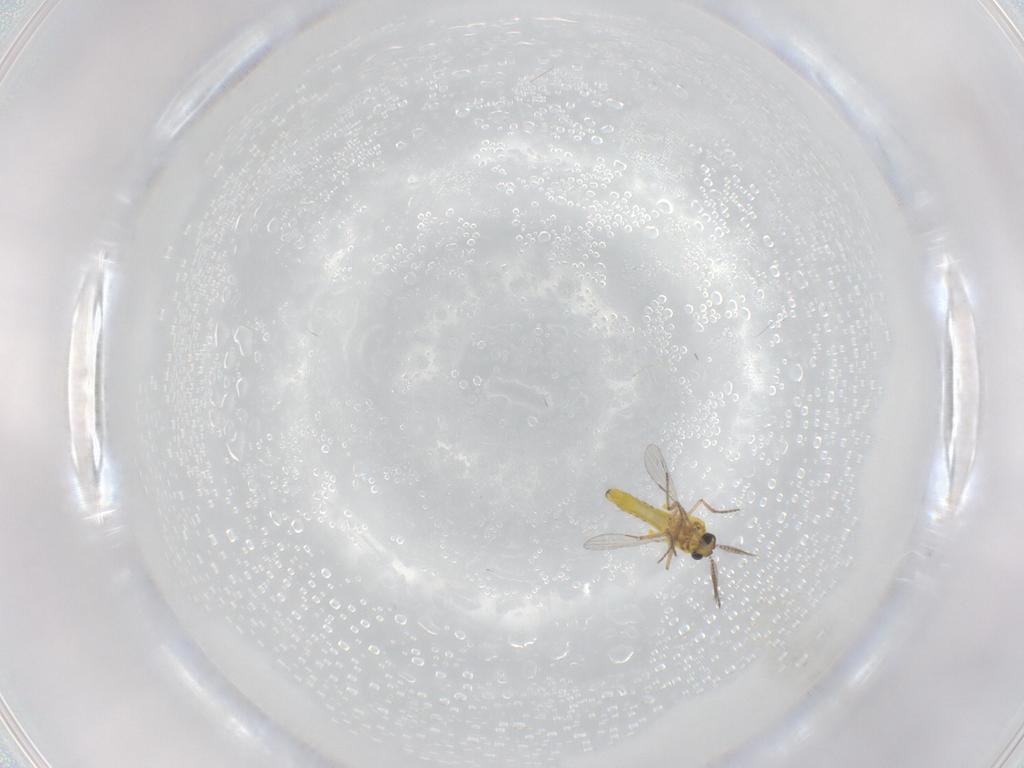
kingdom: Animalia
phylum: Arthropoda
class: Insecta
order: Diptera
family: Ceratopogonidae
